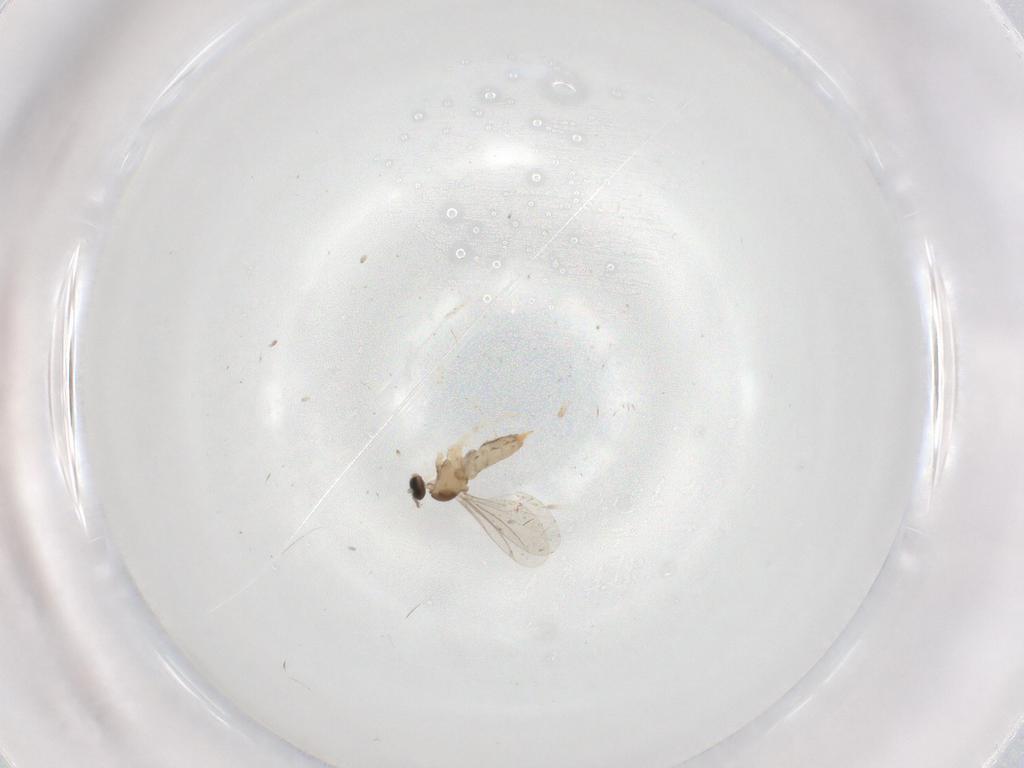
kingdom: Animalia
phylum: Arthropoda
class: Insecta
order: Diptera
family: Cecidomyiidae
